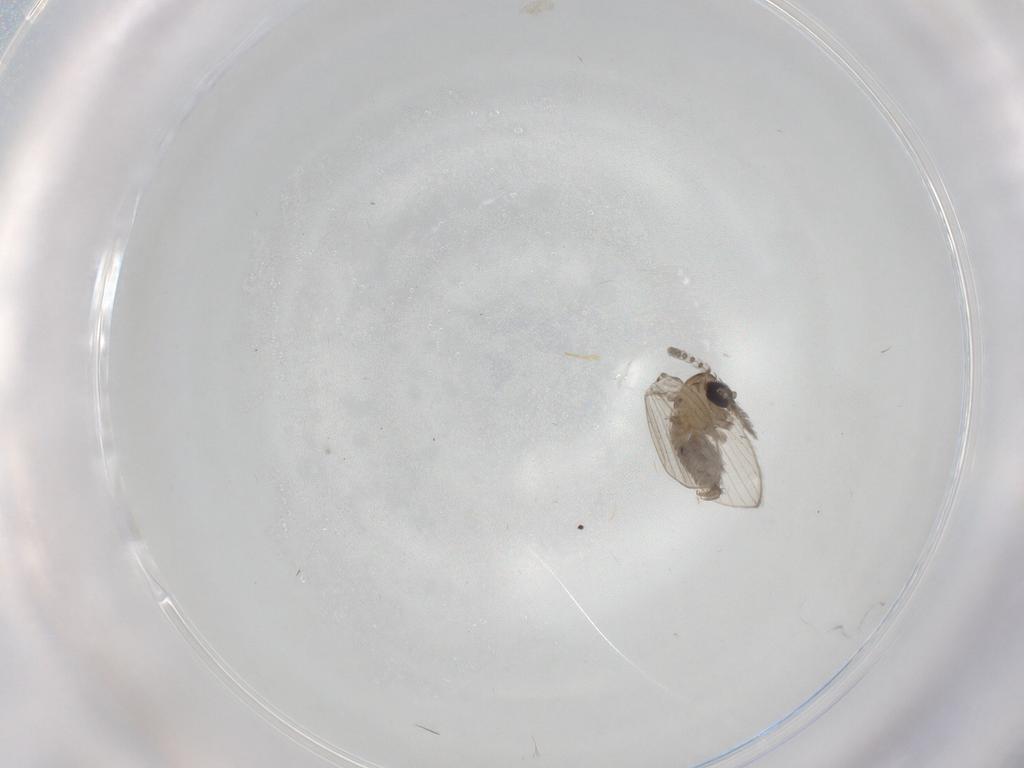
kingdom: Animalia
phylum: Arthropoda
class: Insecta
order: Diptera
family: Psychodidae
